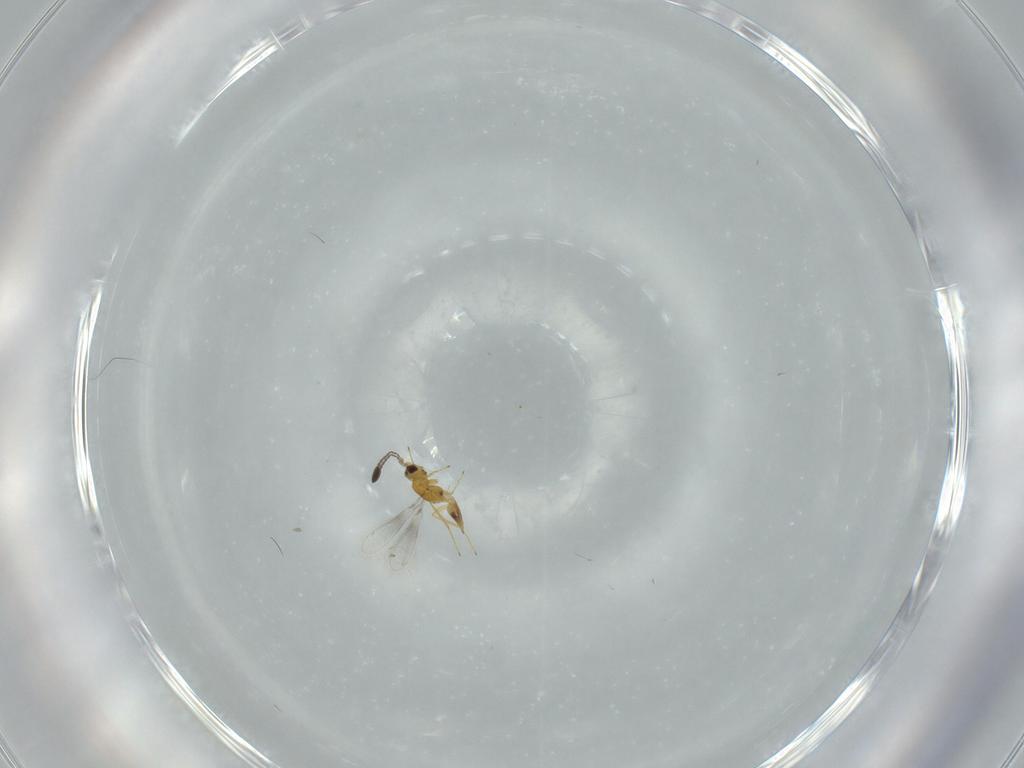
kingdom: Animalia
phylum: Arthropoda
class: Insecta
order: Hymenoptera
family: Mymaridae
